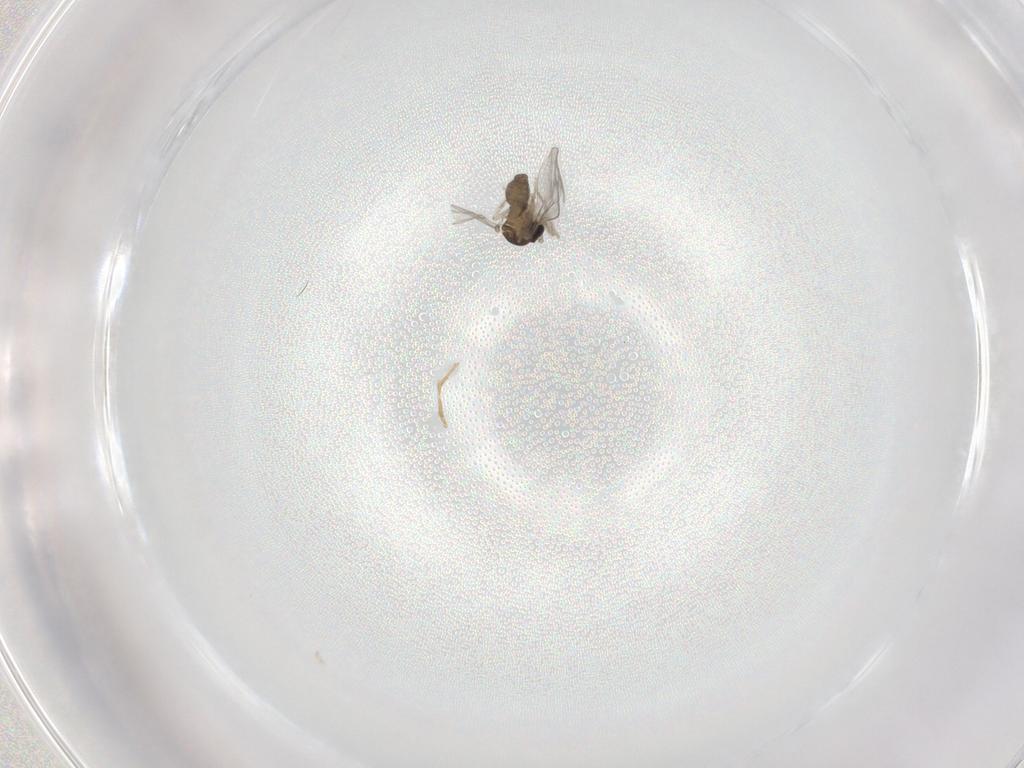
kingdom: Animalia
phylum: Arthropoda
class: Insecta
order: Diptera
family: Cecidomyiidae
